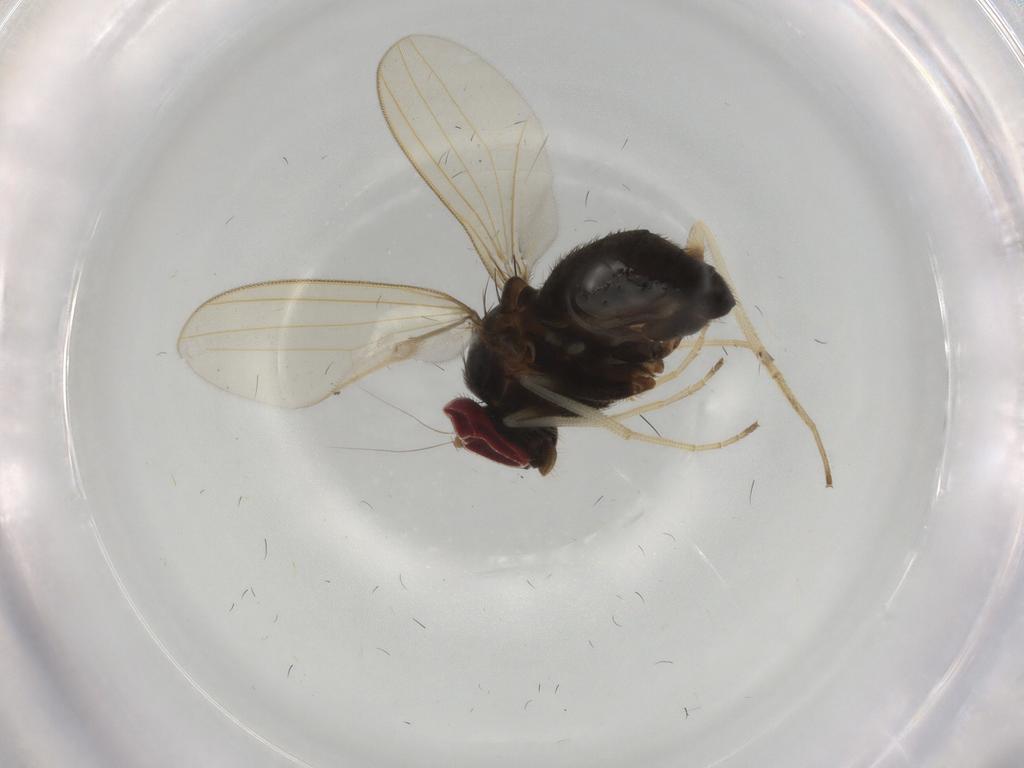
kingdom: Animalia
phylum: Arthropoda
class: Insecta
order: Diptera
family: Dolichopodidae
